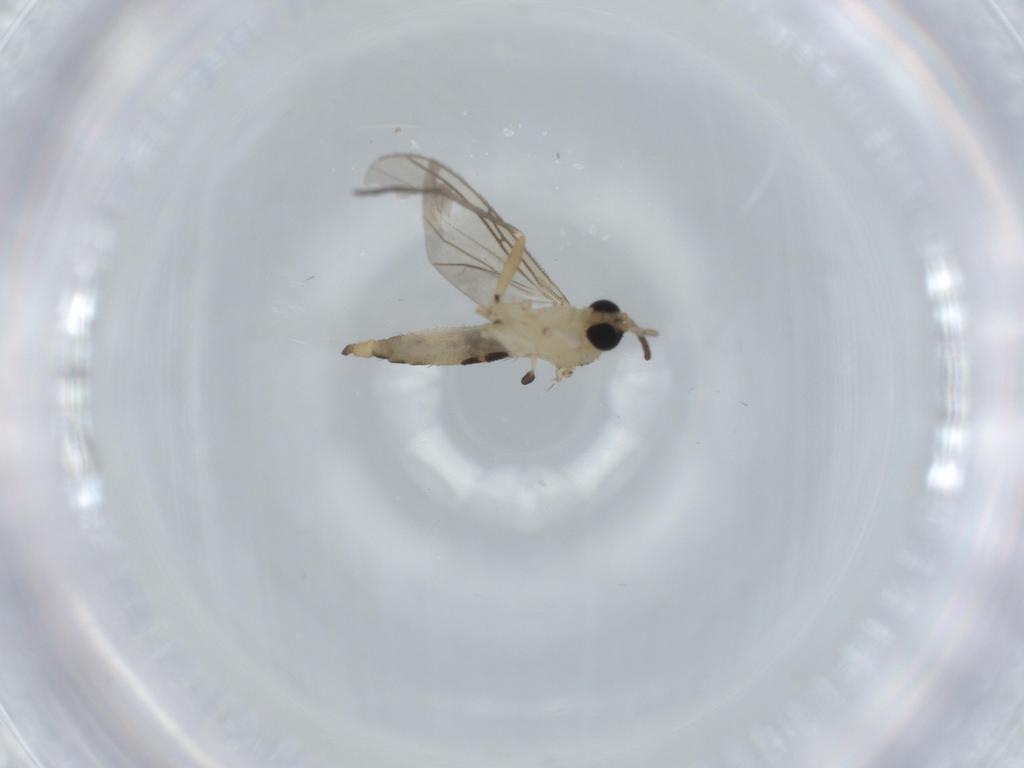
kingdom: Animalia
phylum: Arthropoda
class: Insecta
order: Diptera
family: Sciaridae
